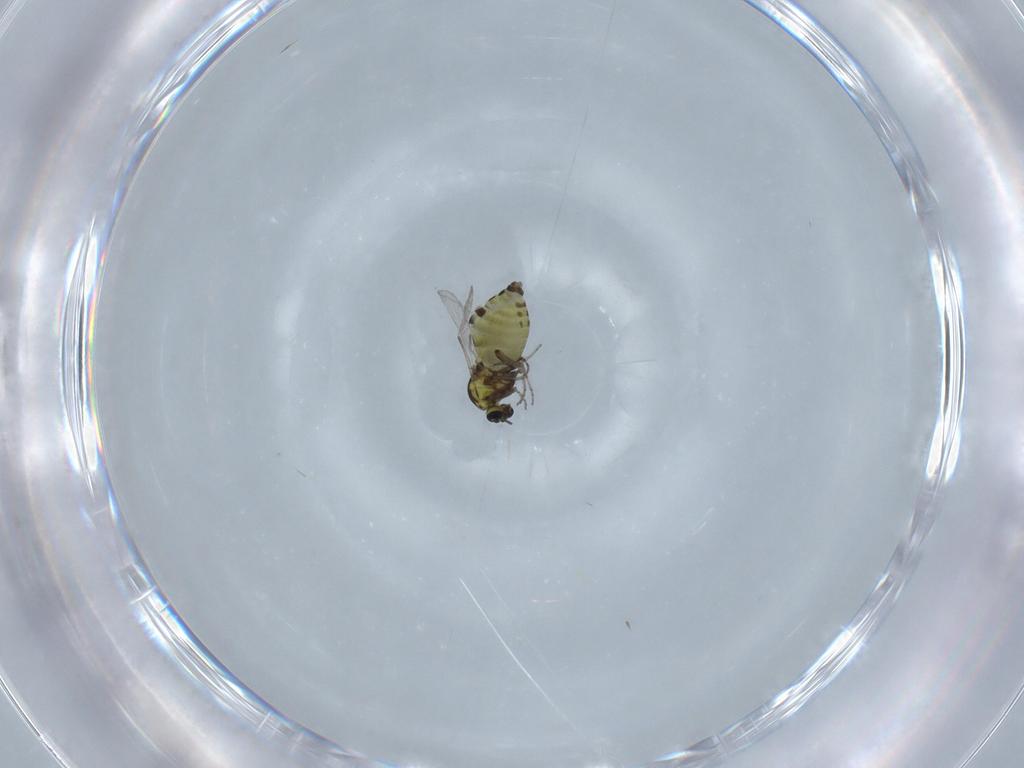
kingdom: Animalia
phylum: Arthropoda
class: Insecta
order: Diptera
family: Ceratopogonidae
